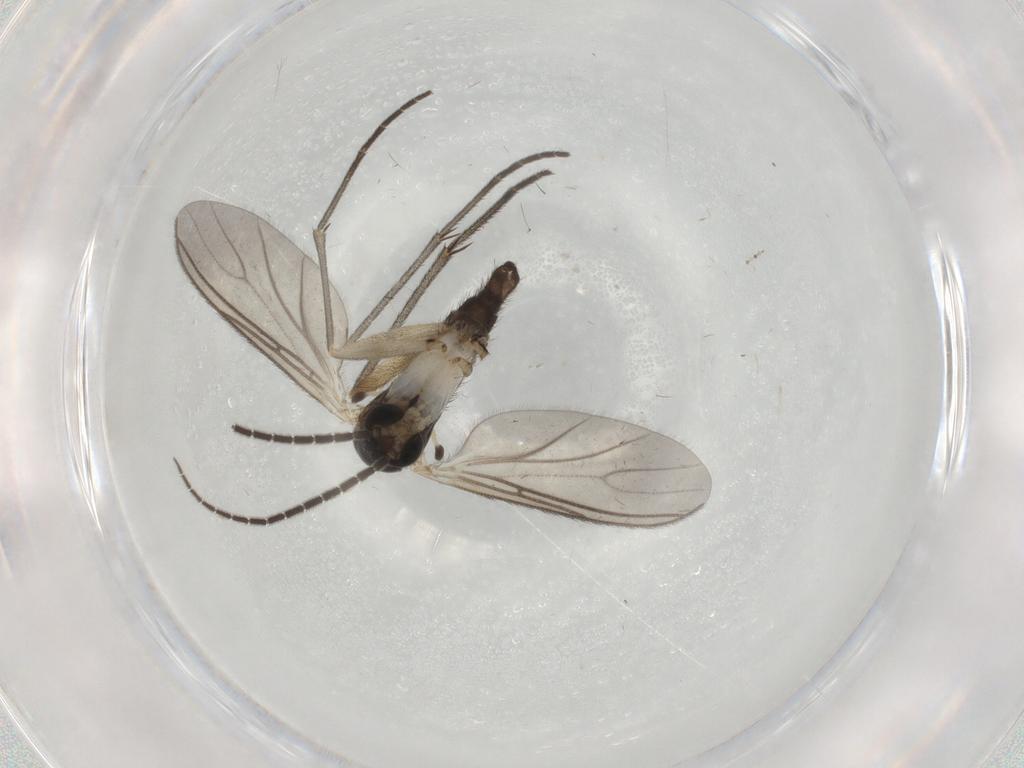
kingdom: Animalia
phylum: Arthropoda
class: Insecta
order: Diptera
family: Sciaridae
